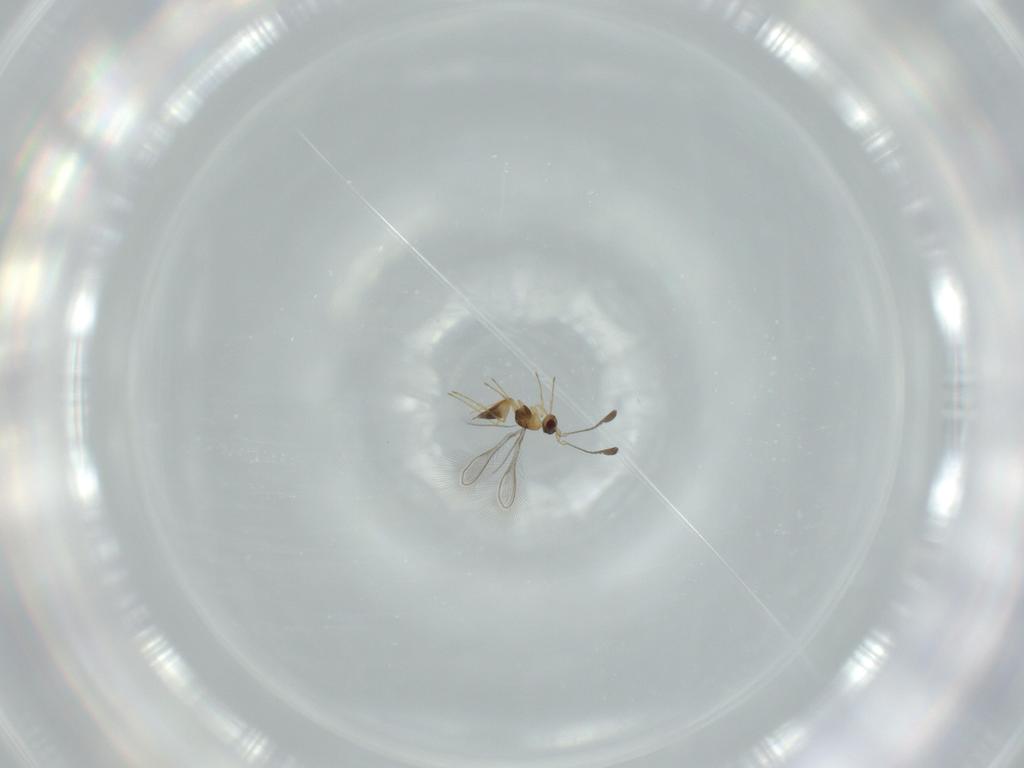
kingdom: Animalia
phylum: Arthropoda
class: Insecta
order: Hymenoptera
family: Mymaridae
